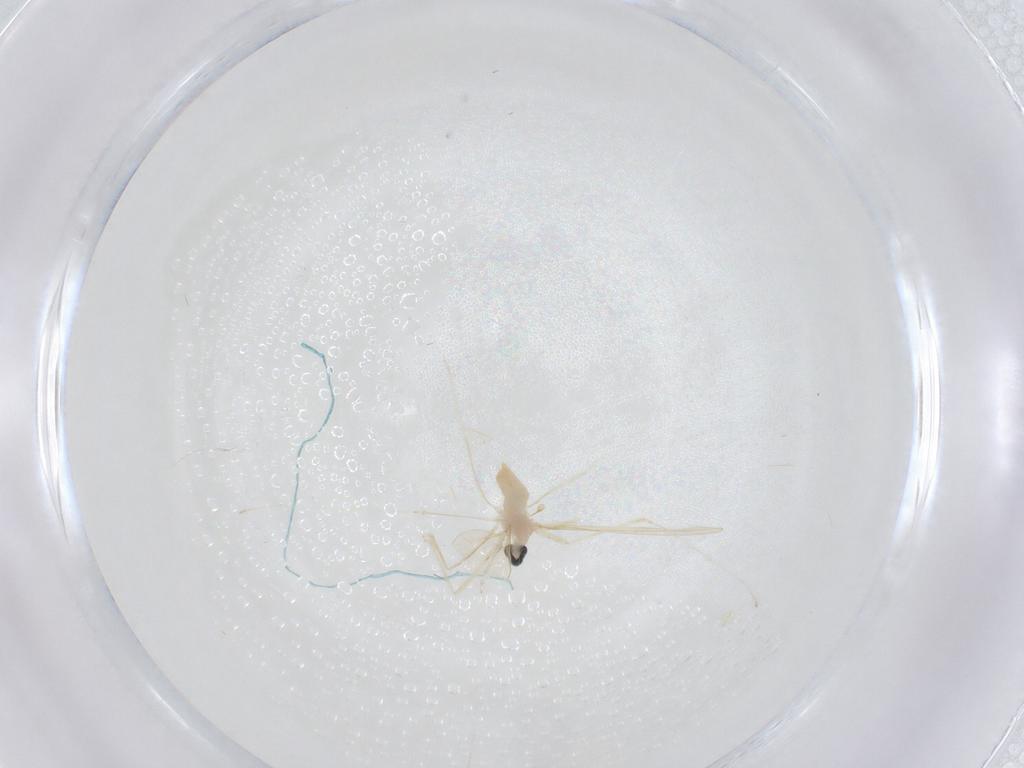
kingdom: Animalia
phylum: Arthropoda
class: Insecta
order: Diptera
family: Cecidomyiidae
